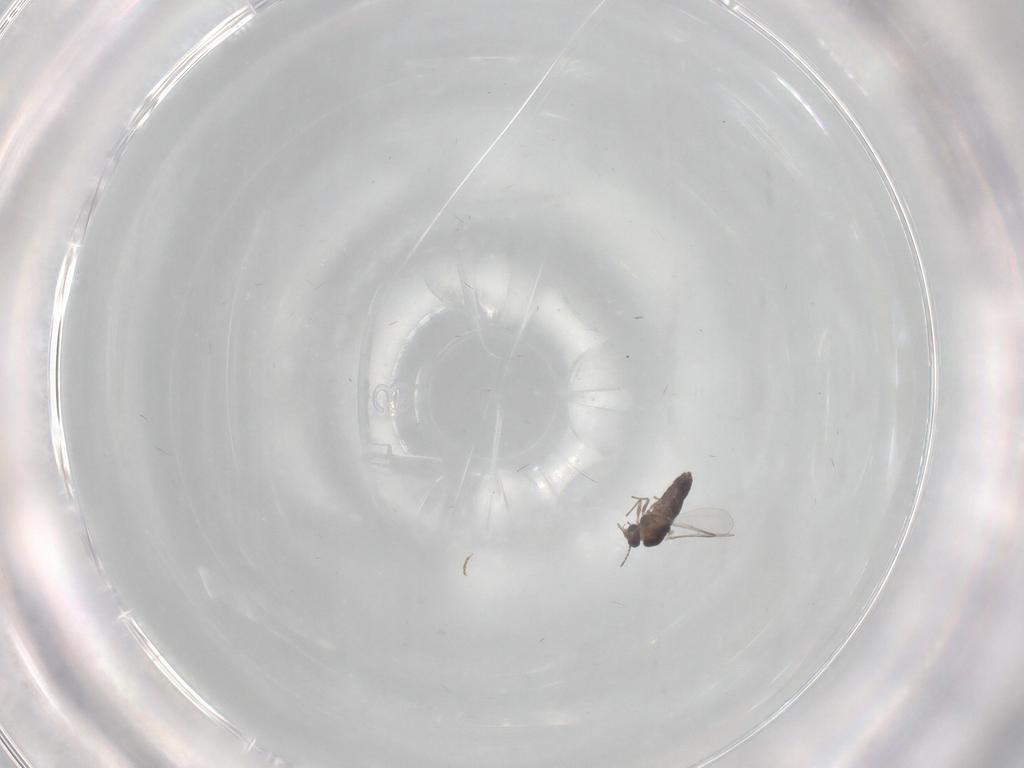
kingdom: Animalia
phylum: Arthropoda
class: Insecta
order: Diptera
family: Chironomidae
